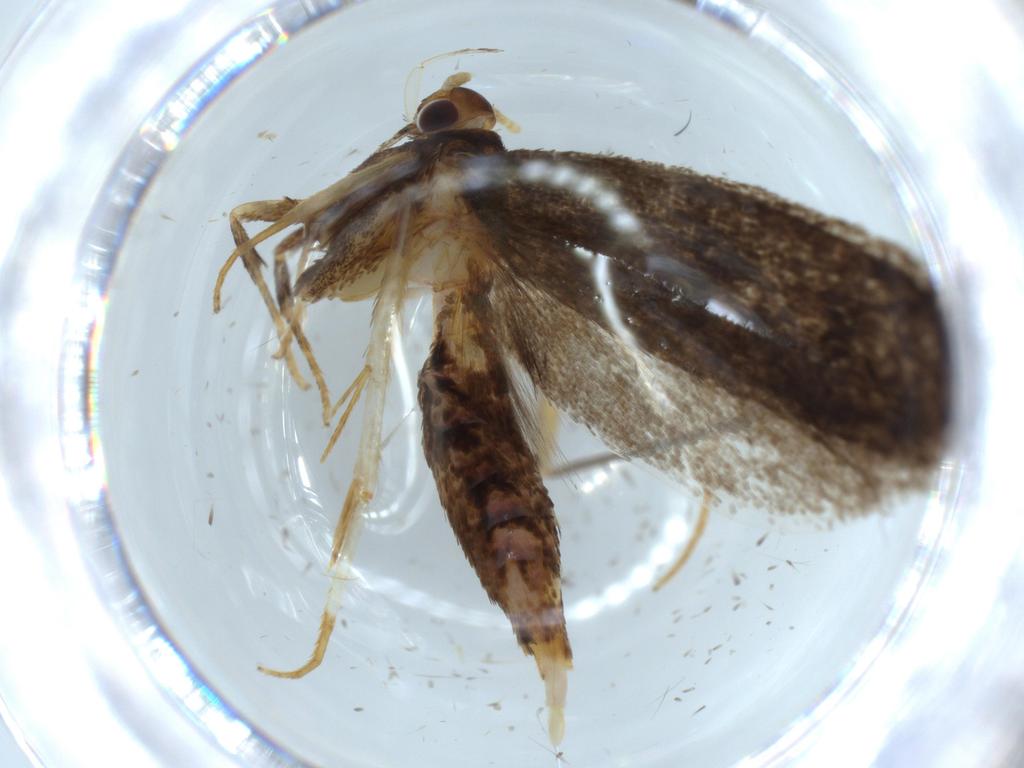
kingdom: Animalia
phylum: Arthropoda
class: Insecta
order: Lepidoptera
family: Lecithoceridae
